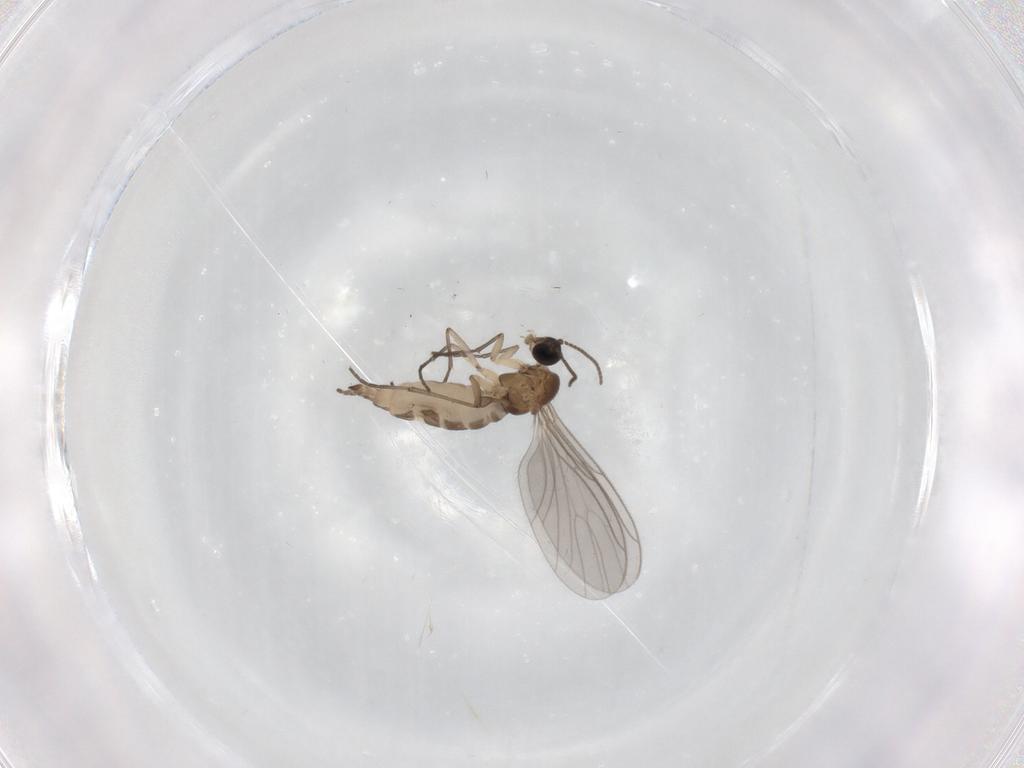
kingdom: Animalia
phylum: Arthropoda
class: Insecta
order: Diptera
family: Sciaridae
